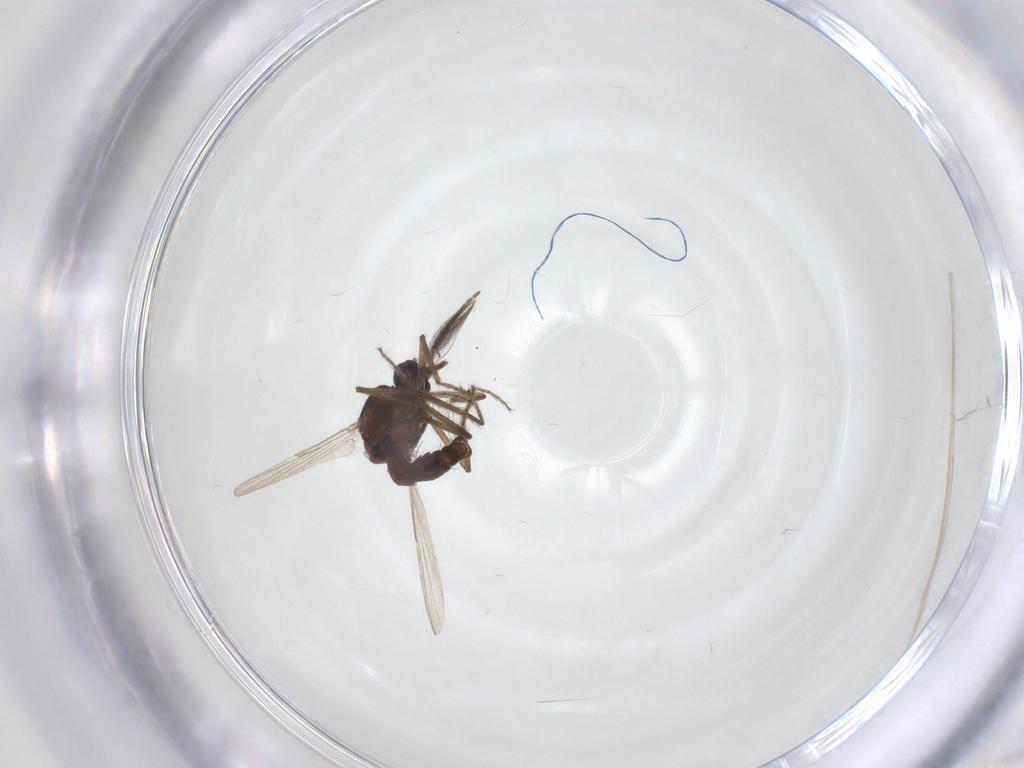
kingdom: Animalia
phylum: Arthropoda
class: Insecta
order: Diptera
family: Ceratopogonidae
